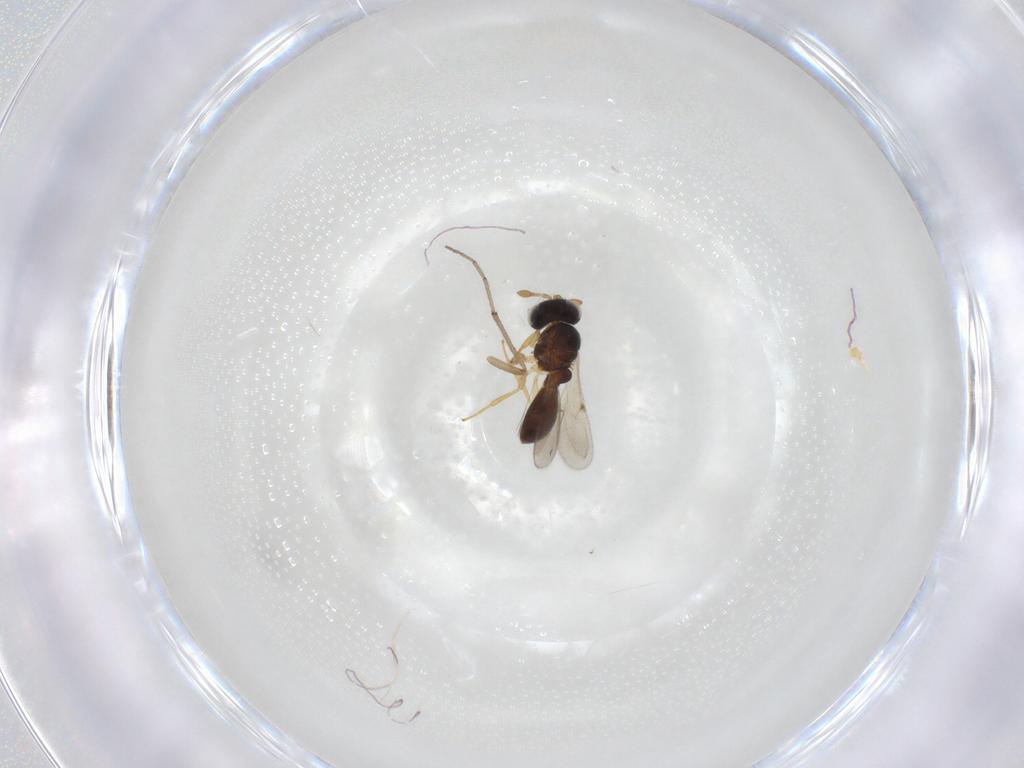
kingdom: Animalia
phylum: Arthropoda
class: Insecta
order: Hymenoptera
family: Scelionidae
